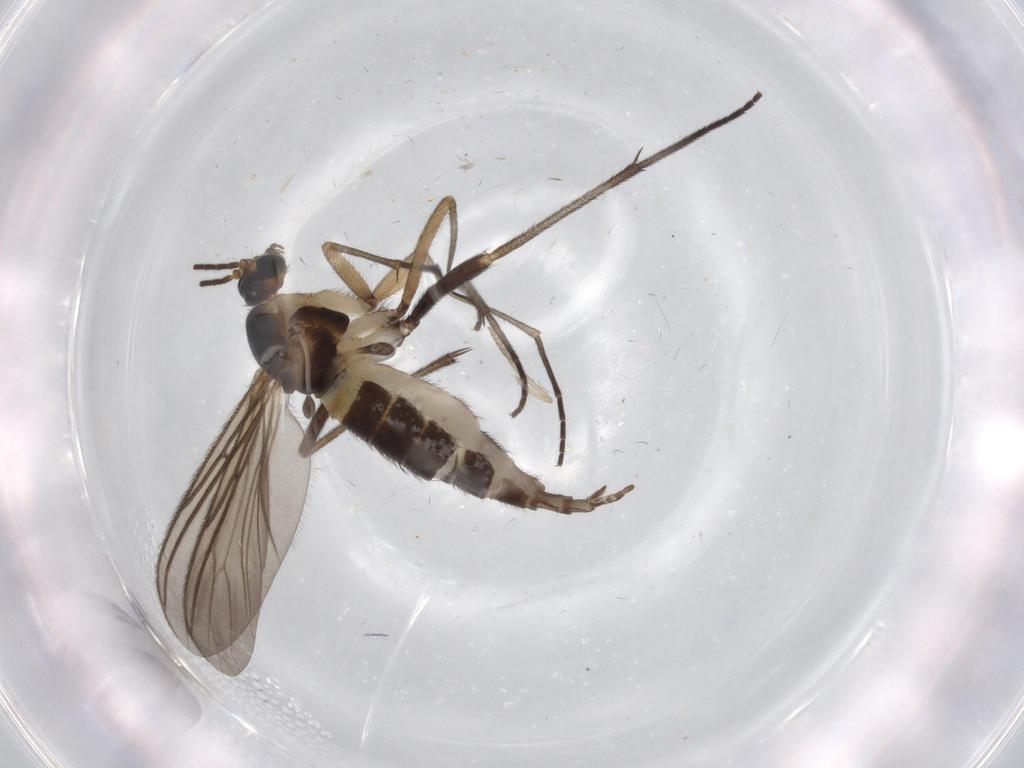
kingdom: Animalia
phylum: Arthropoda
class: Insecta
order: Diptera
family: Sciaridae
